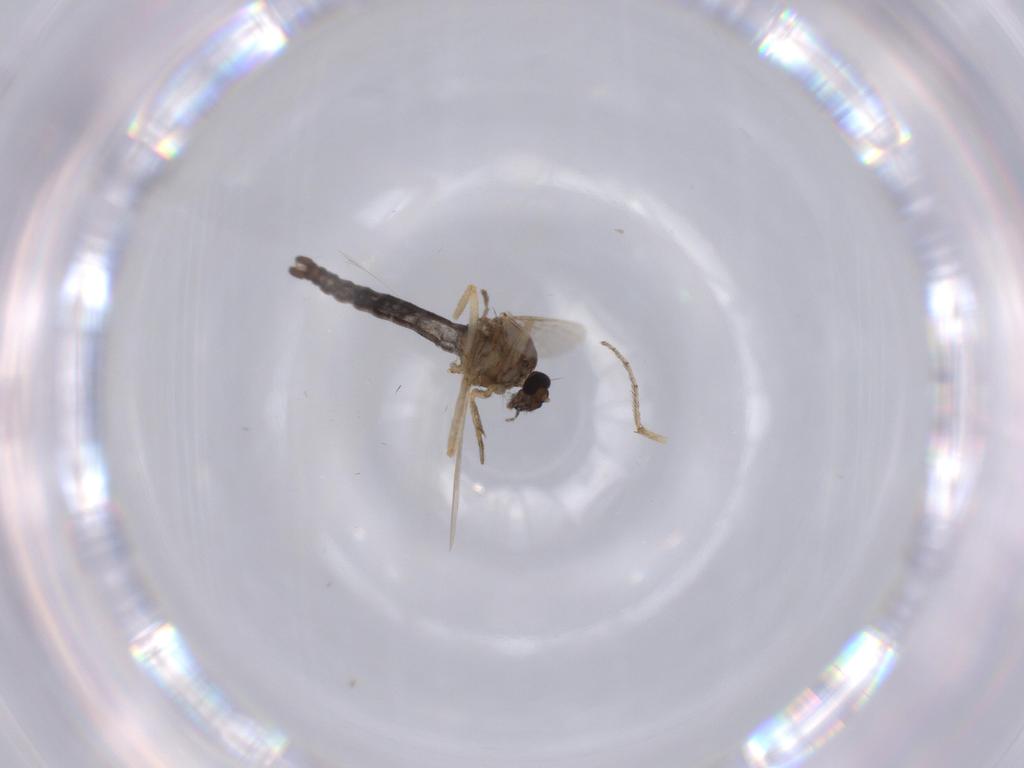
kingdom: Animalia
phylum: Arthropoda
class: Insecta
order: Diptera
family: Ceratopogonidae
